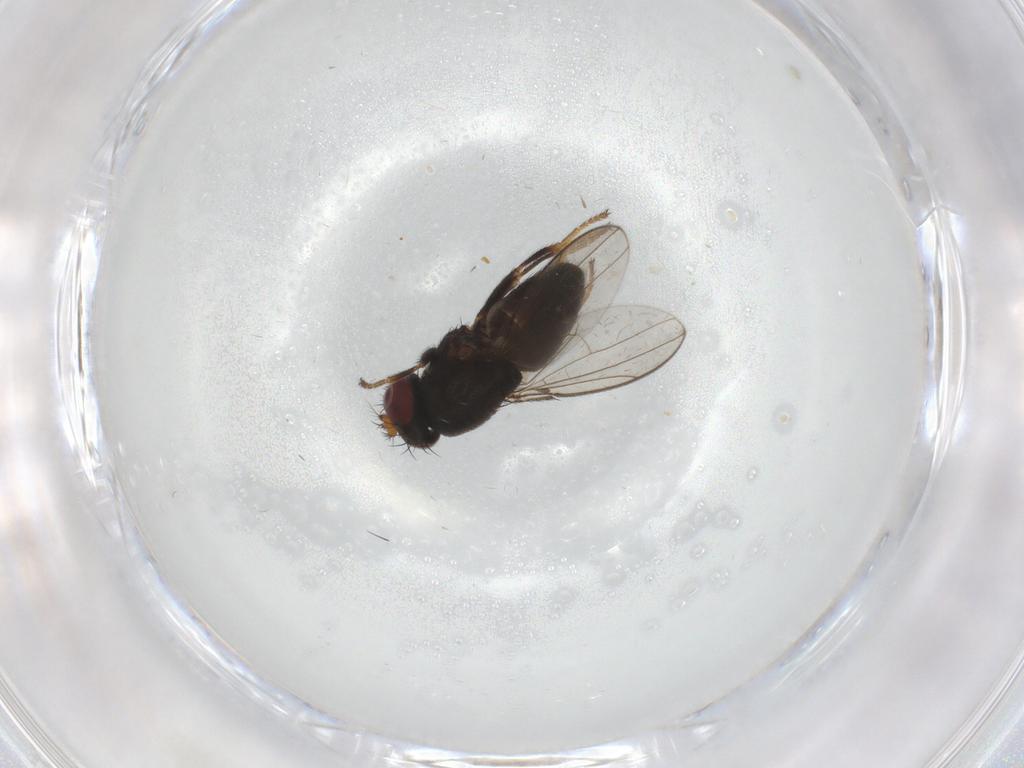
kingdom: Animalia
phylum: Arthropoda
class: Insecta
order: Diptera
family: Ephydridae
